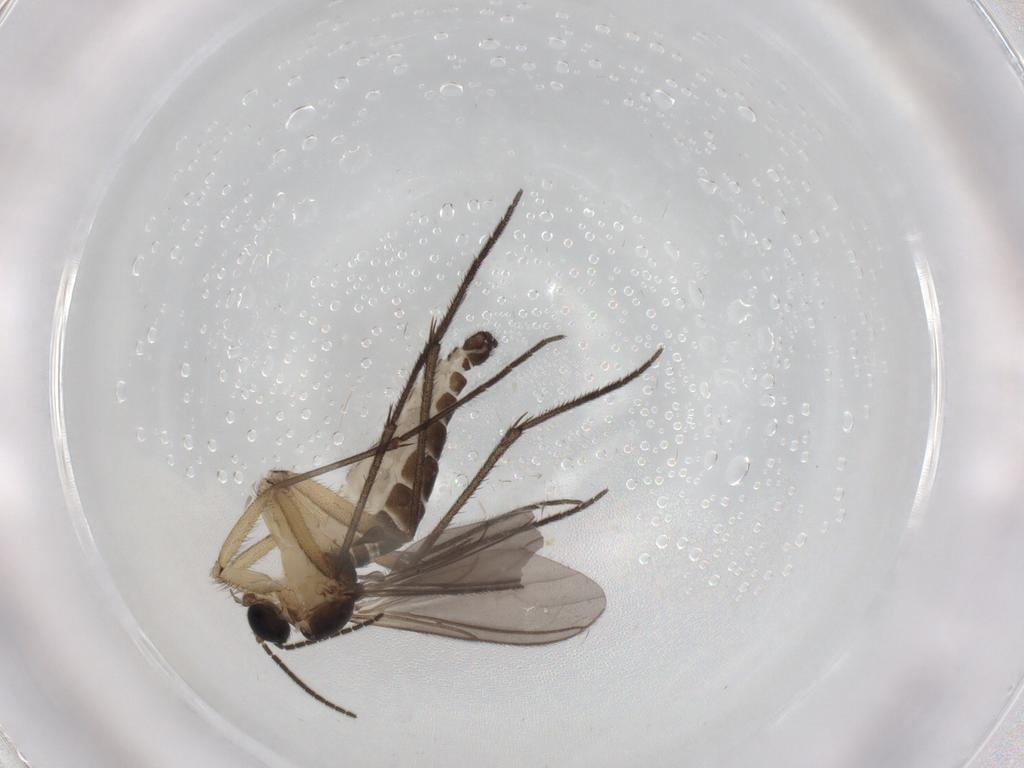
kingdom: Animalia
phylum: Arthropoda
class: Insecta
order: Diptera
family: Sciaridae
